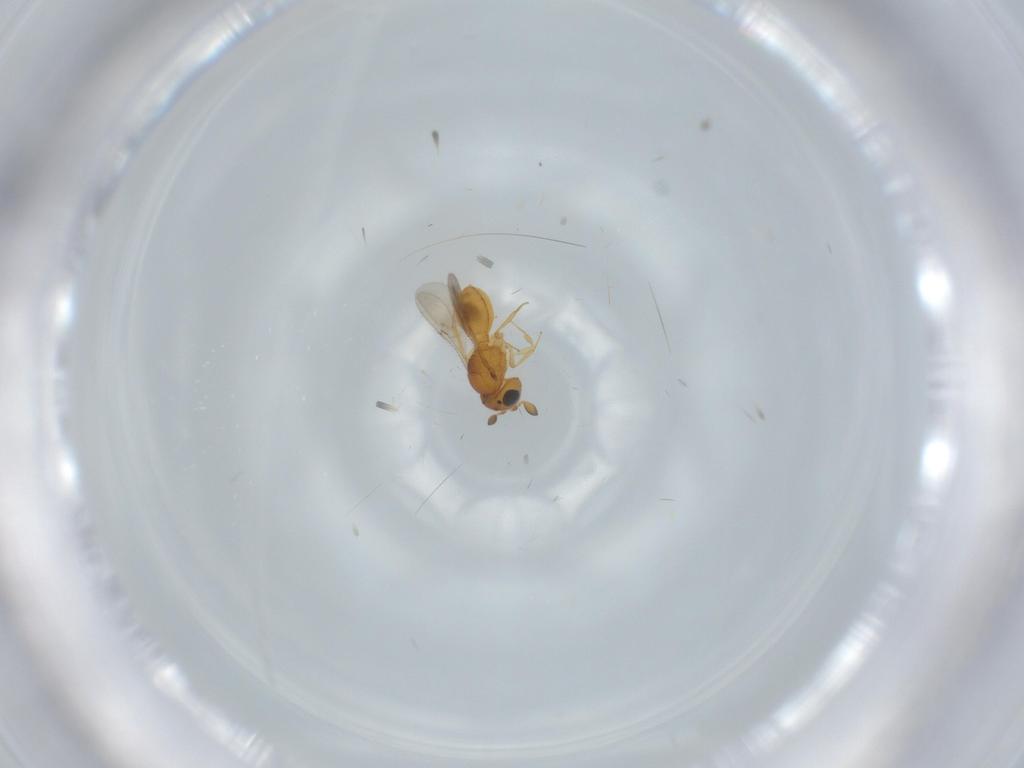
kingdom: Animalia
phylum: Arthropoda
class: Insecta
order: Hymenoptera
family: Scelionidae
